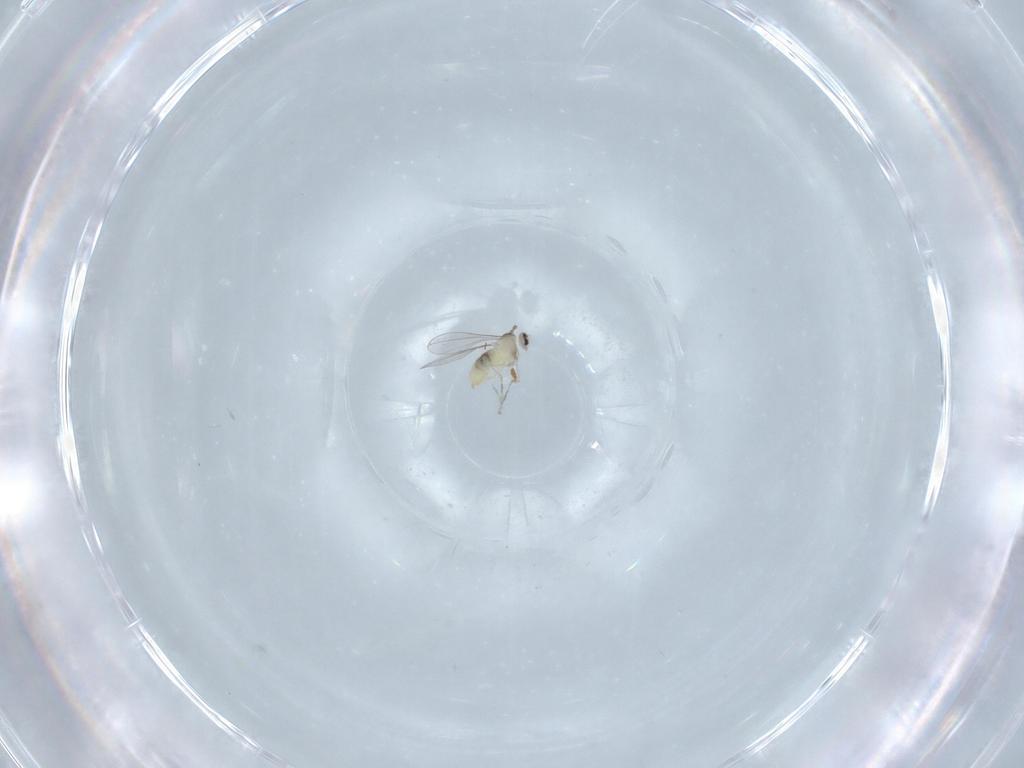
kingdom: Animalia
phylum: Arthropoda
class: Insecta
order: Diptera
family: Cecidomyiidae
